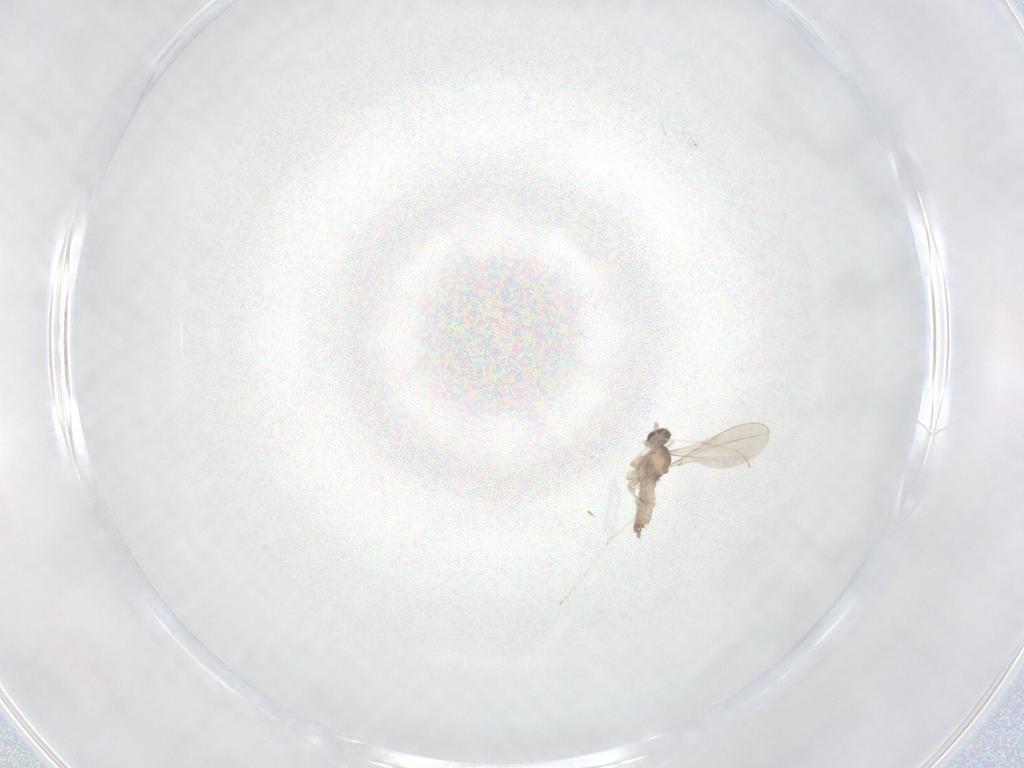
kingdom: Animalia
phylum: Arthropoda
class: Insecta
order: Diptera
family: Cecidomyiidae
